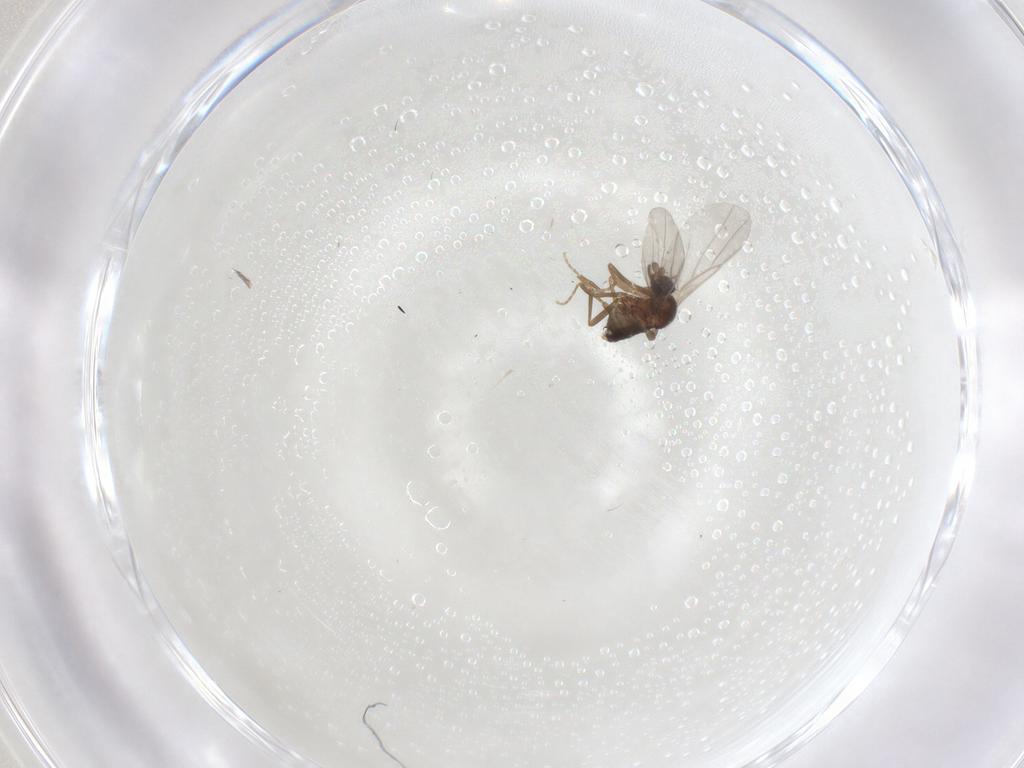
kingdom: Animalia
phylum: Arthropoda
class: Insecta
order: Diptera
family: Phoridae
